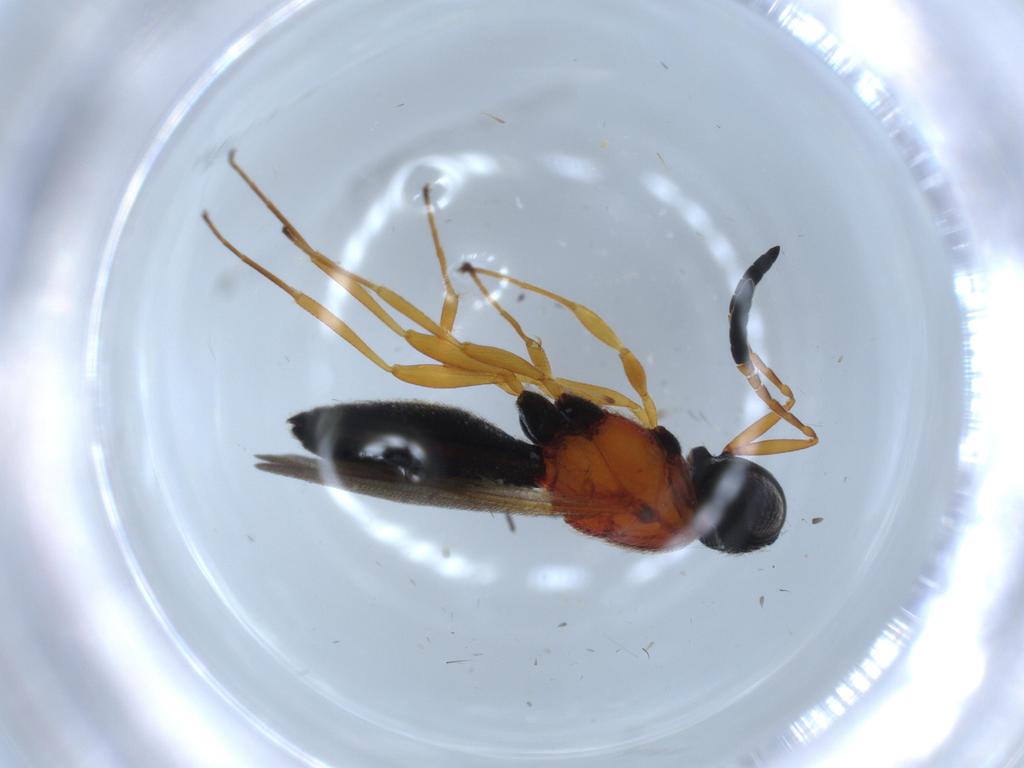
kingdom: Animalia
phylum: Arthropoda
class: Insecta
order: Hymenoptera
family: Scelionidae
